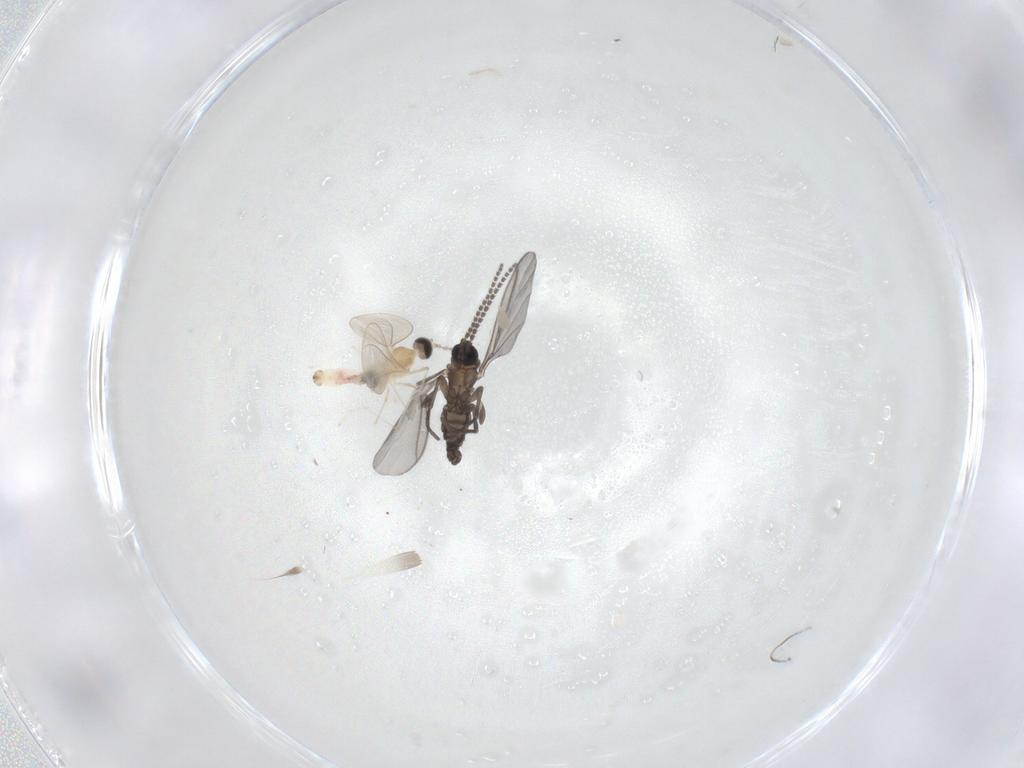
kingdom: Animalia
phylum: Arthropoda
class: Insecta
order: Diptera
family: Cecidomyiidae
